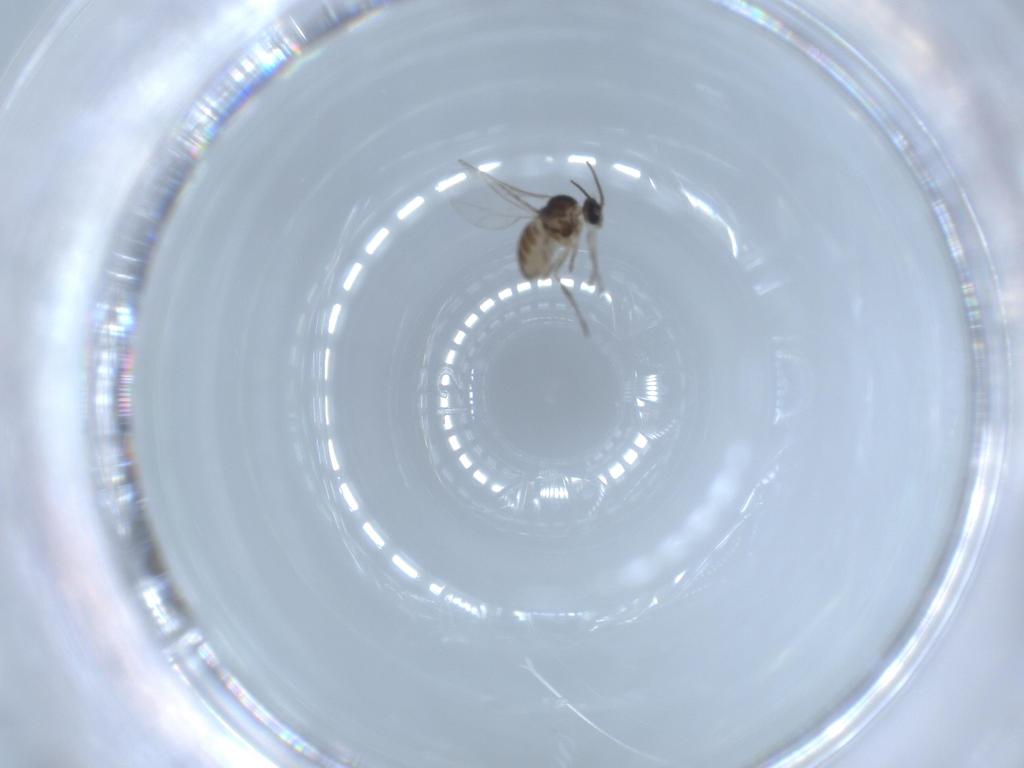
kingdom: Animalia
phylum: Arthropoda
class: Insecta
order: Diptera
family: Cecidomyiidae
